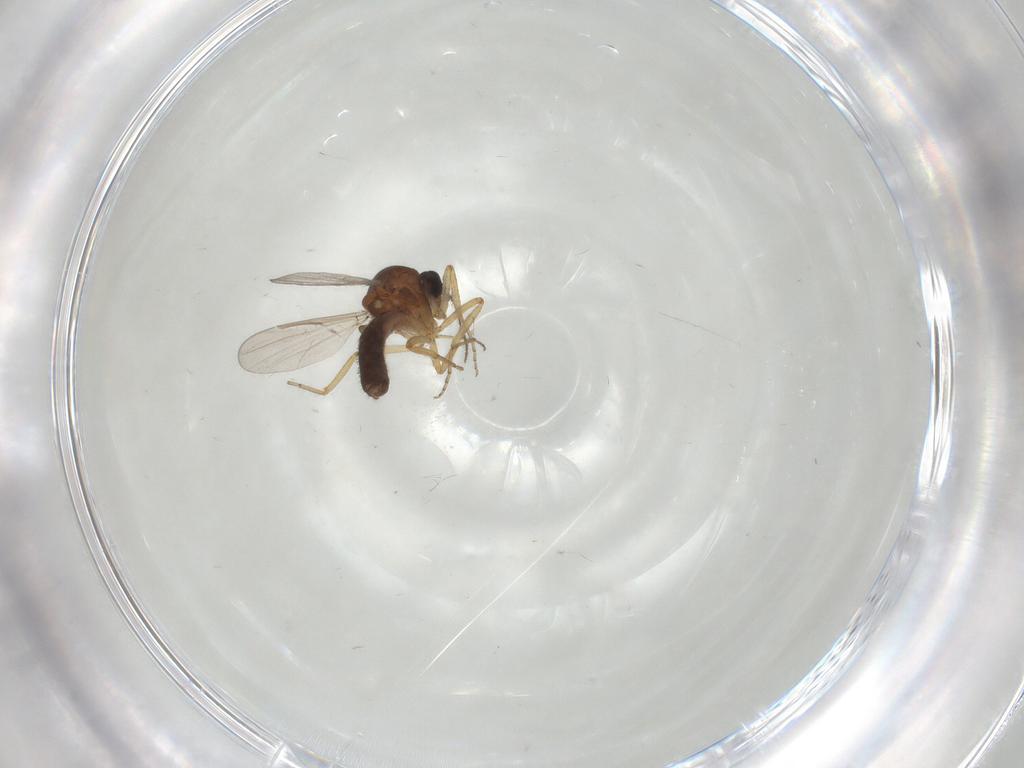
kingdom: Animalia
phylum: Arthropoda
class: Insecta
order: Diptera
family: Ceratopogonidae
